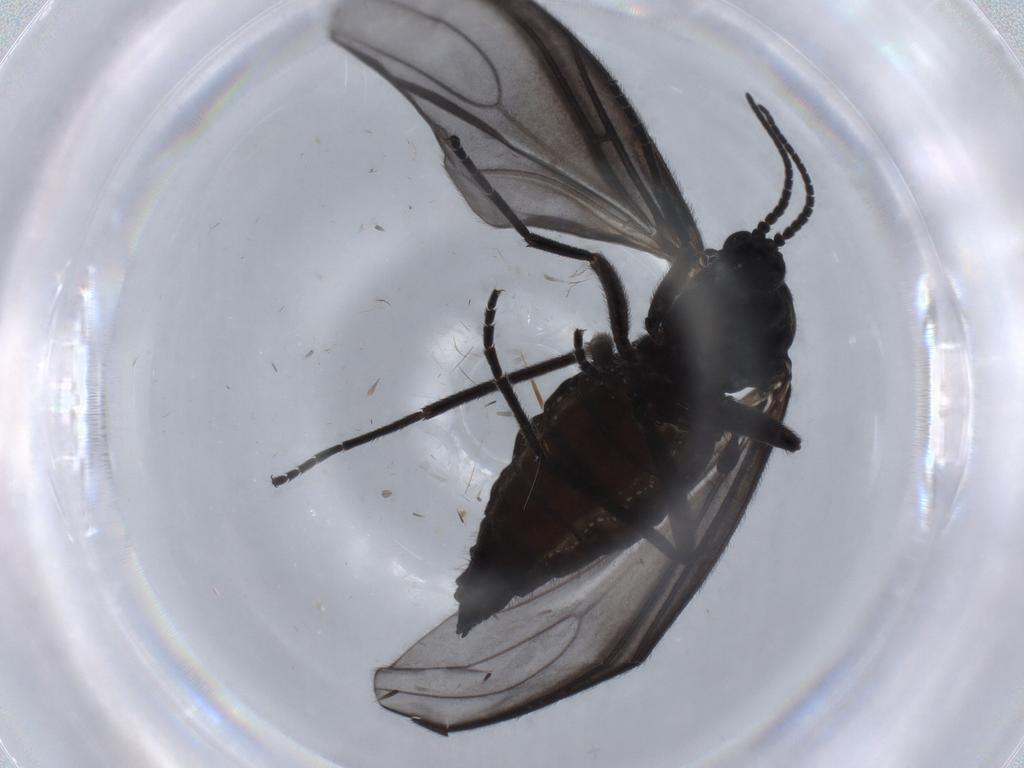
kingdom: Animalia
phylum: Arthropoda
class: Insecta
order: Diptera
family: Sciaridae
